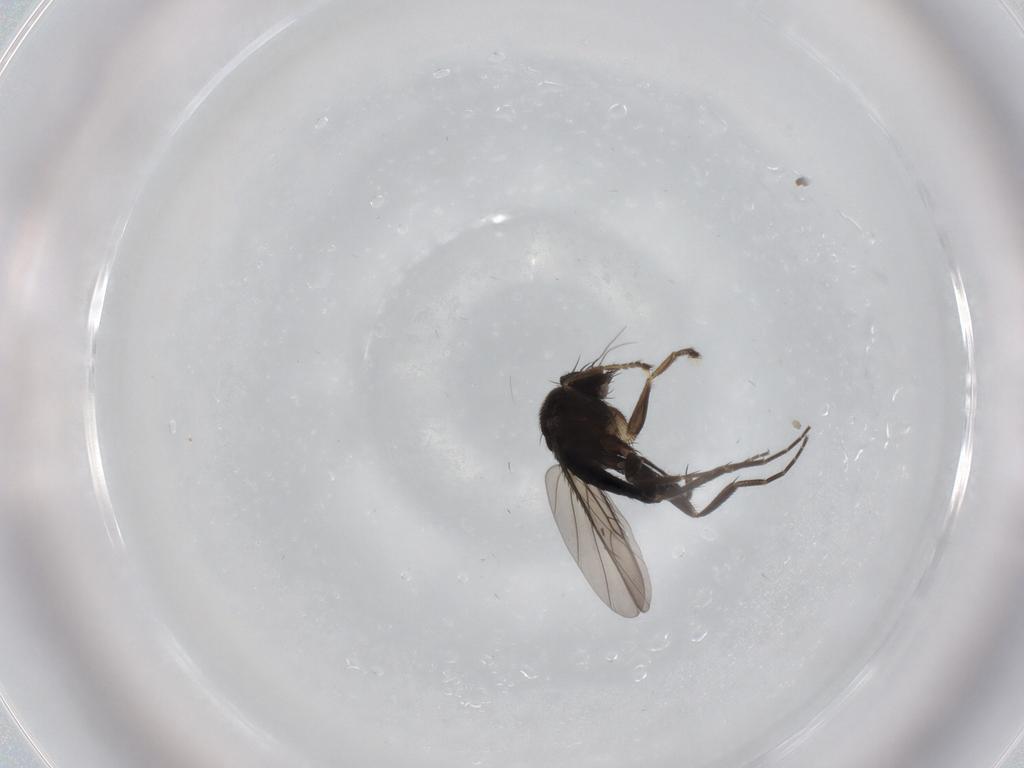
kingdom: Animalia
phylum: Arthropoda
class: Insecta
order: Diptera
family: Phoridae
